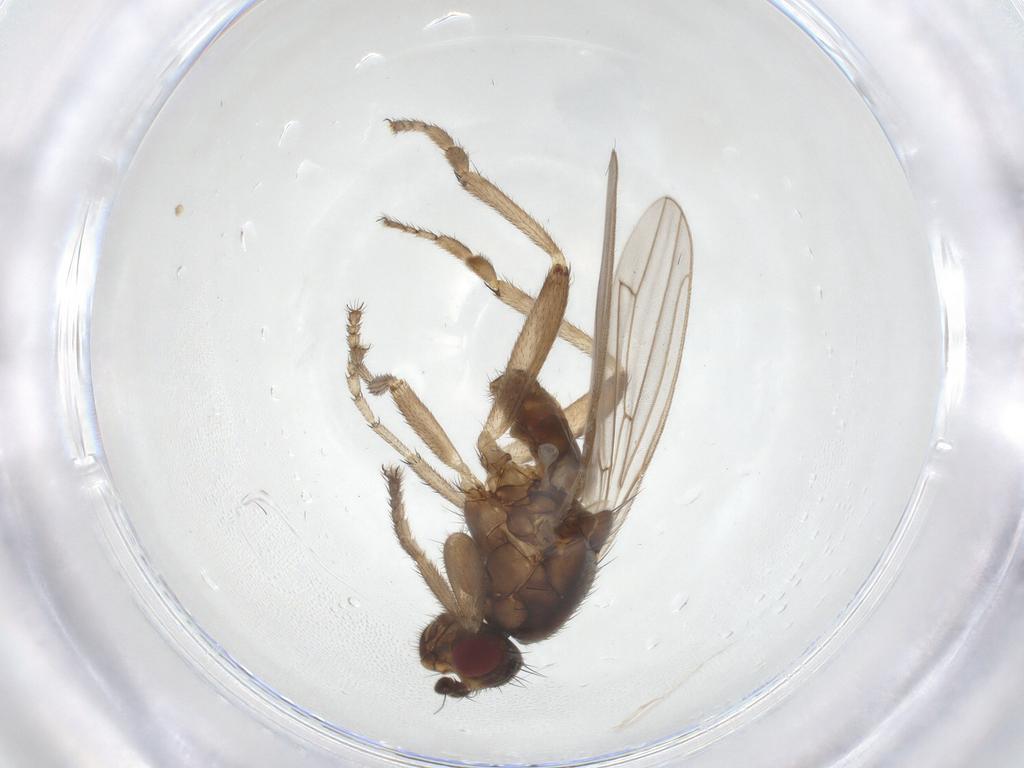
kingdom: Animalia
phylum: Arthropoda
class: Insecta
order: Diptera
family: Sphaeroceridae
